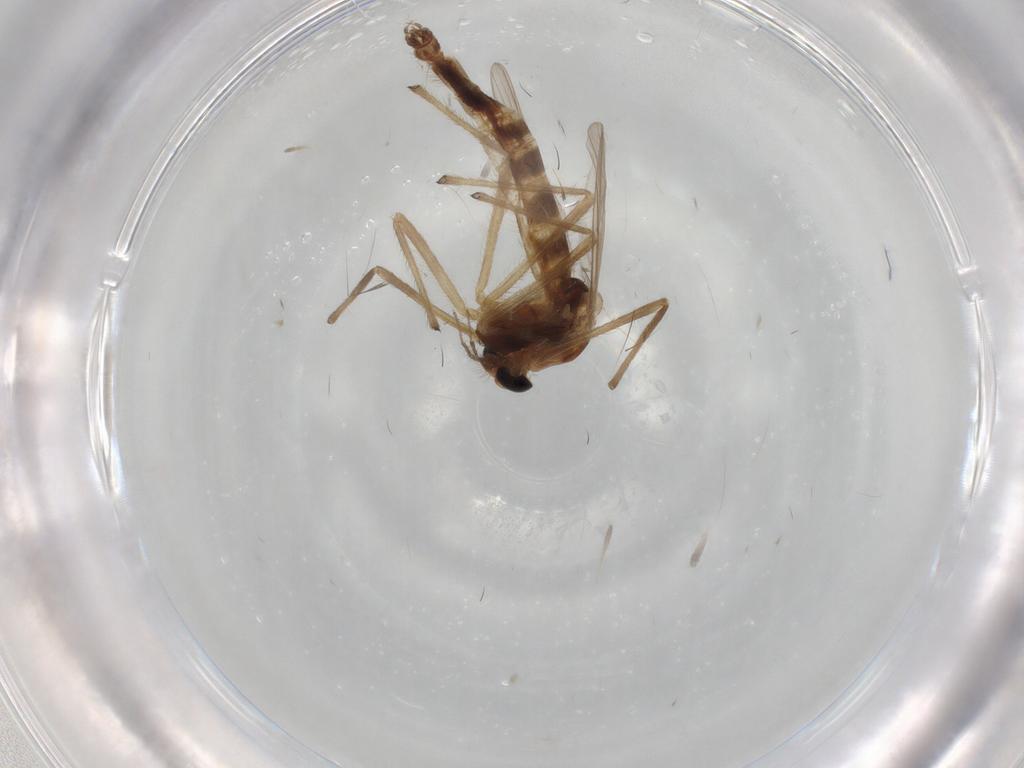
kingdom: Animalia
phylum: Arthropoda
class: Insecta
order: Diptera
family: Chironomidae
